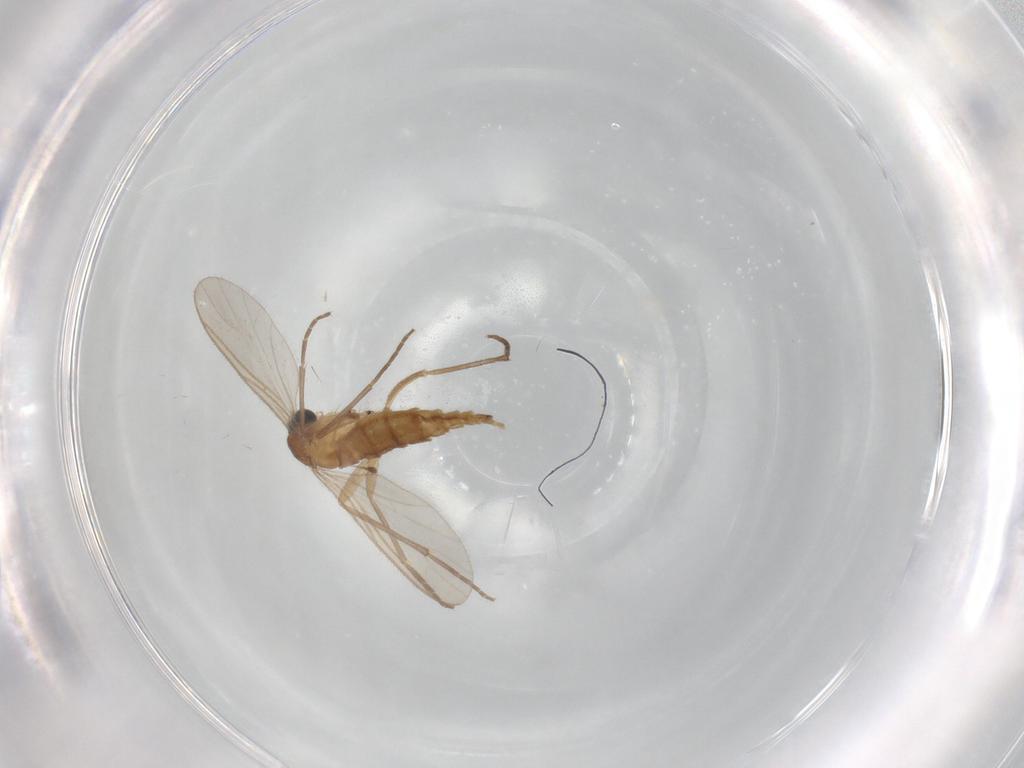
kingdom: Animalia
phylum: Arthropoda
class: Insecta
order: Diptera
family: Sciaridae
